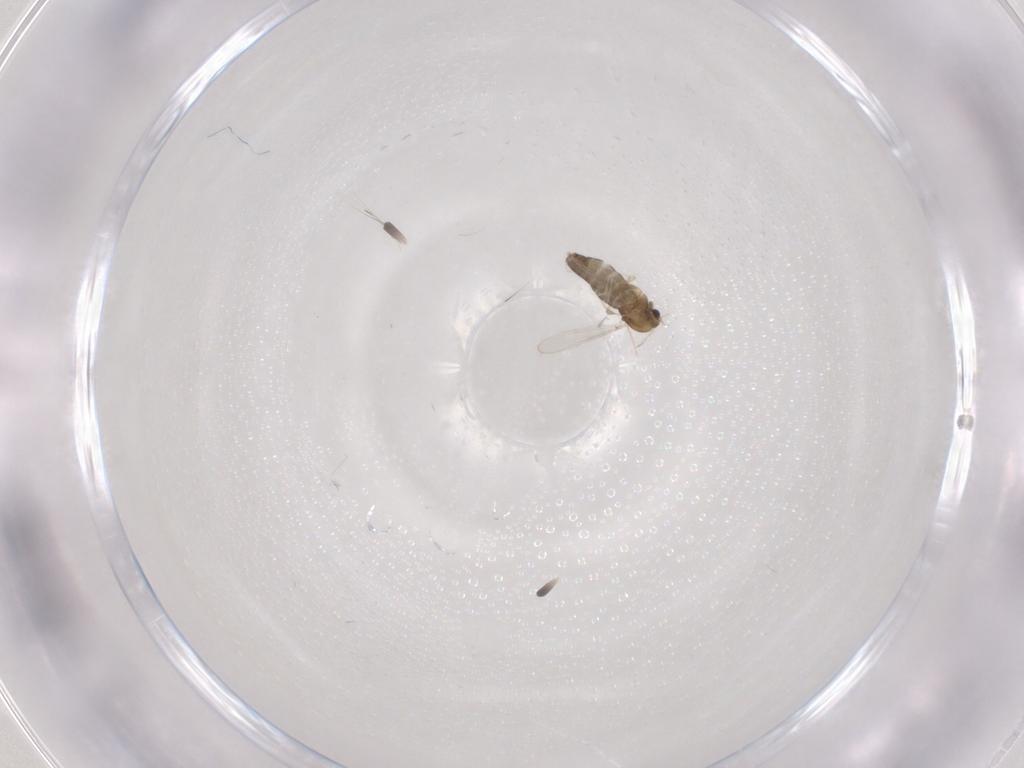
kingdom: Animalia
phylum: Arthropoda
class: Insecta
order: Diptera
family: Chironomidae
